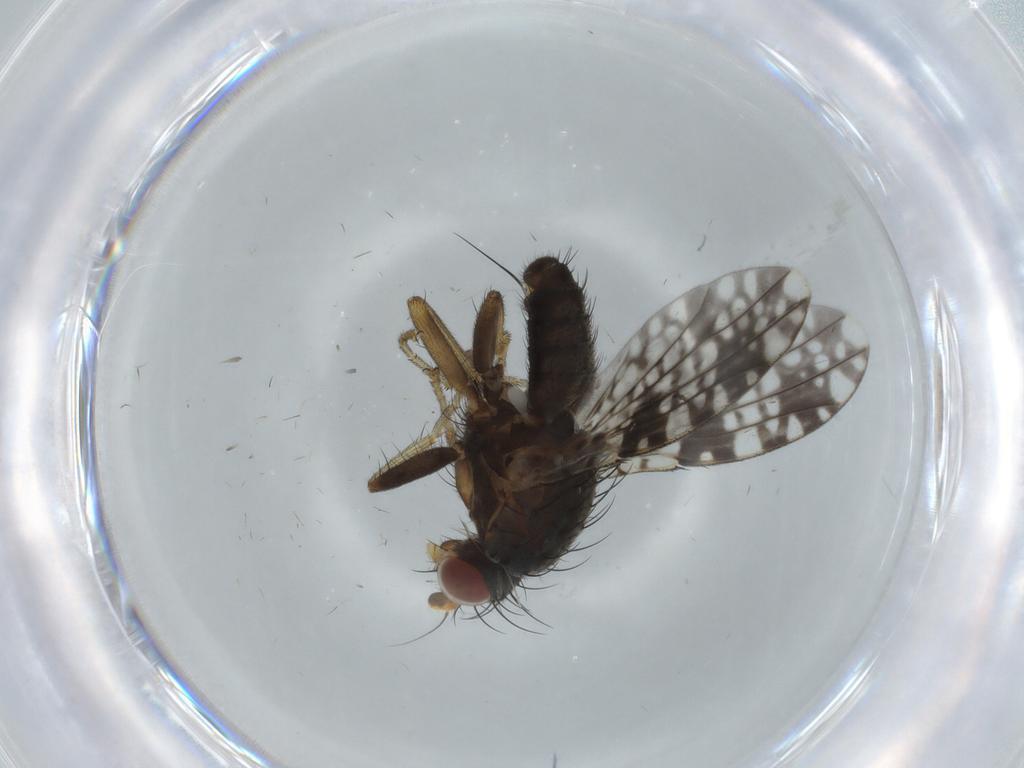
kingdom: Animalia
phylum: Arthropoda
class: Insecta
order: Diptera
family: Tephritidae
